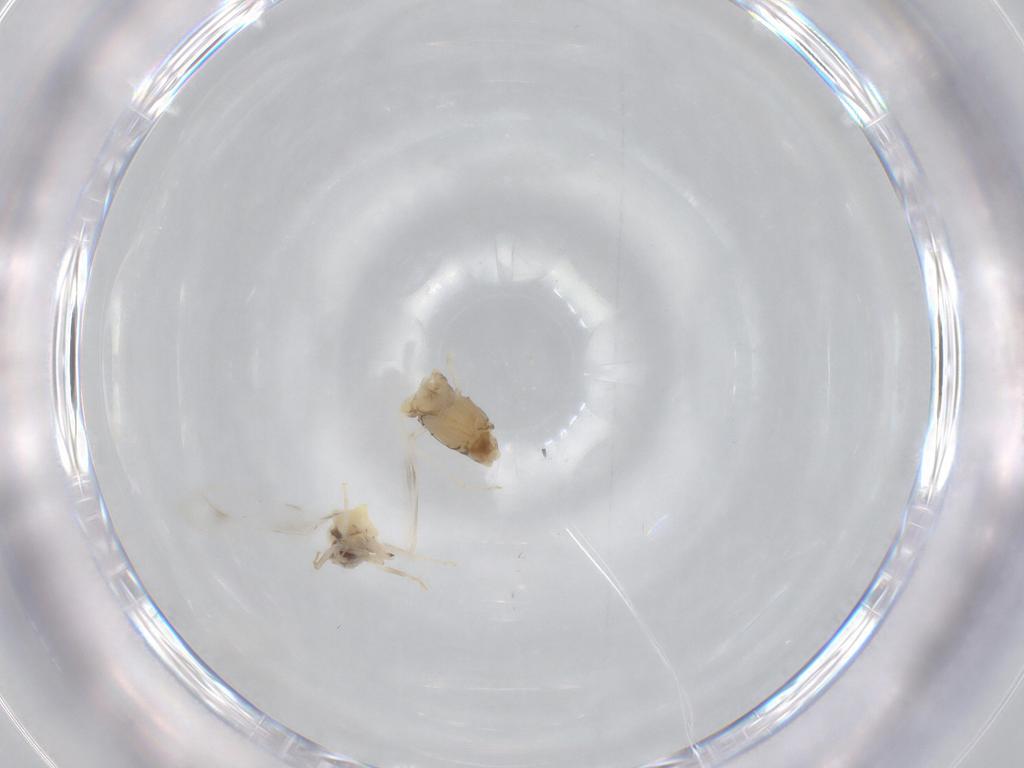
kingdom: Animalia
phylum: Arthropoda
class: Insecta
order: Hemiptera
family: Aleyrodidae
